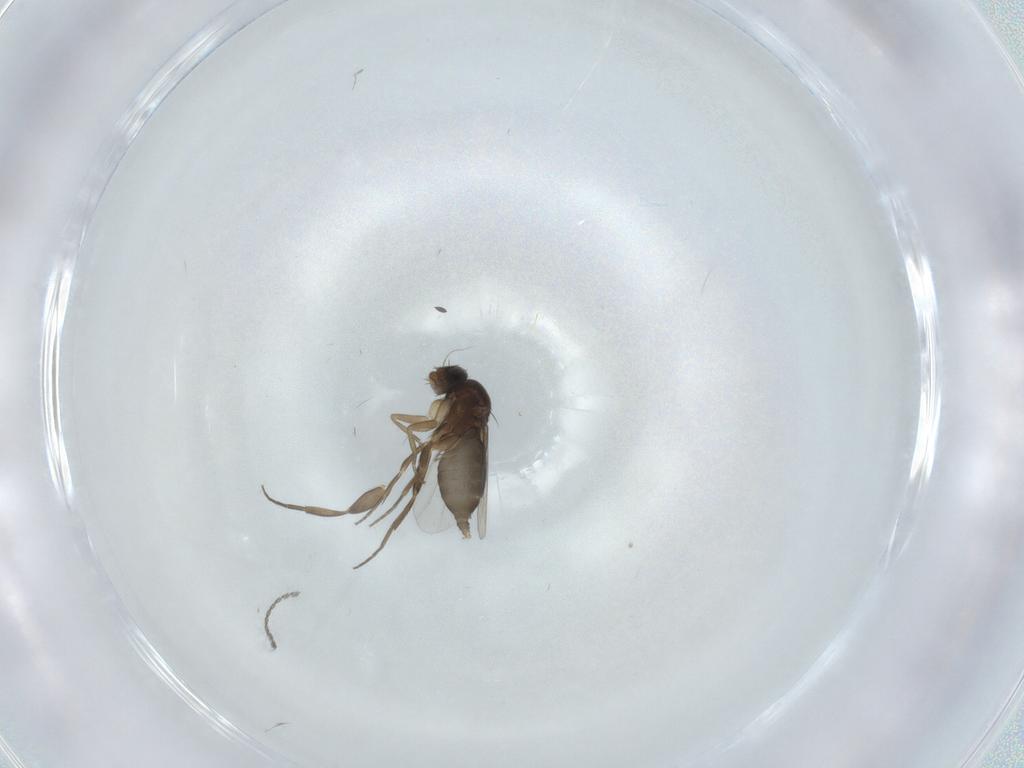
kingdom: Animalia
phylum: Arthropoda
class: Insecta
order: Diptera
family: Phoridae
